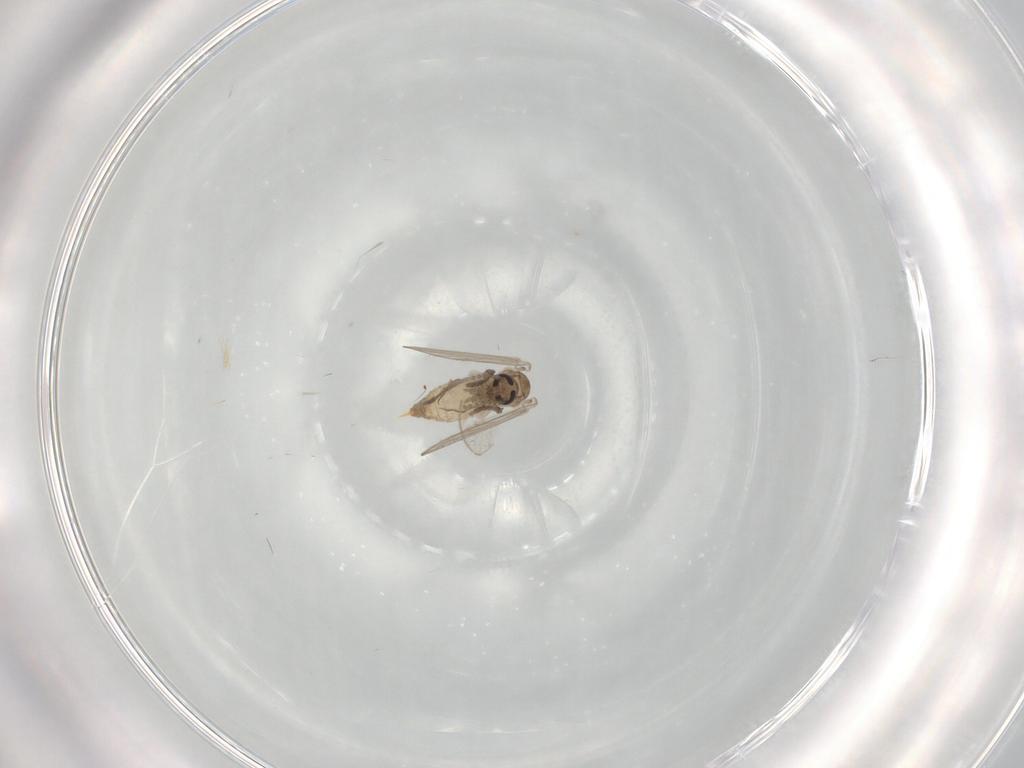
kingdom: Animalia
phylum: Arthropoda
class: Insecta
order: Diptera
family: Psychodidae
